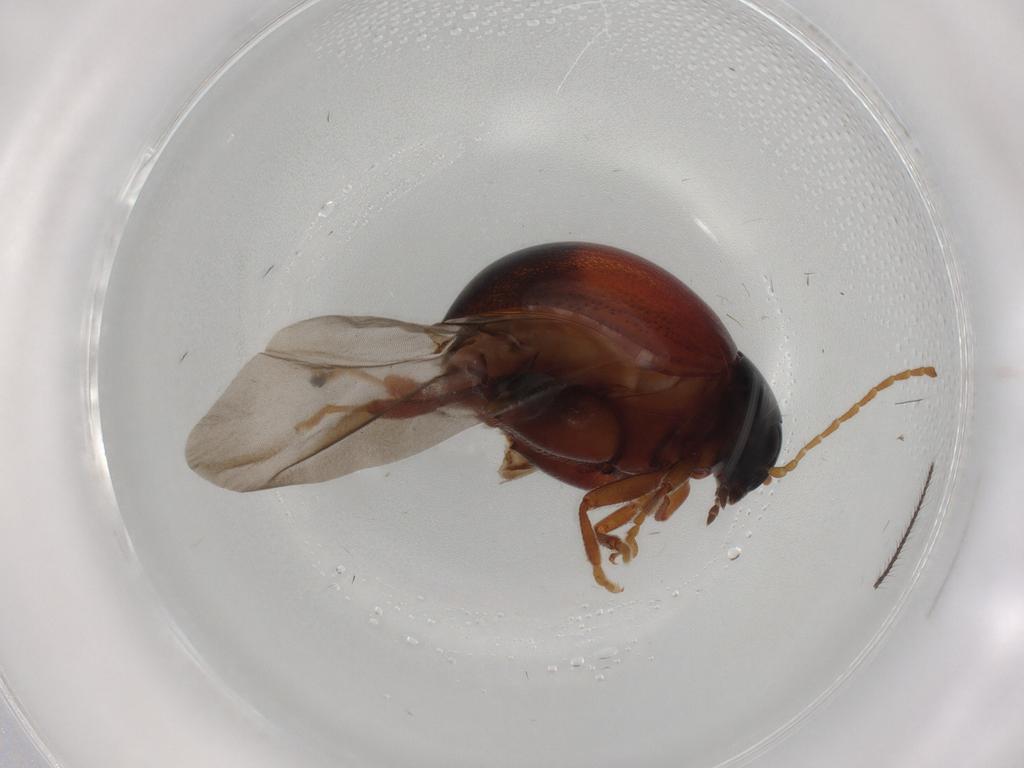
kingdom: Animalia
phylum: Arthropoda
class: Insecta
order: Coleoptera
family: Chrysomelidae
